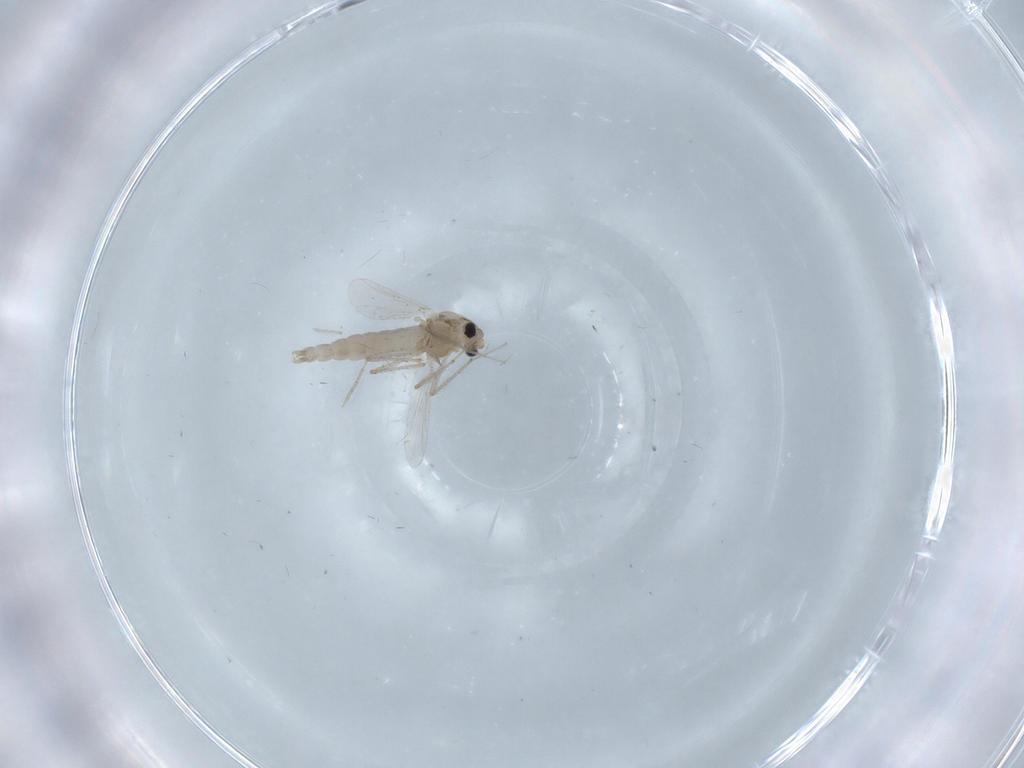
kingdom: Animalia
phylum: Arthropoda
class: Insecta
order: Diptera
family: Chironomidae
